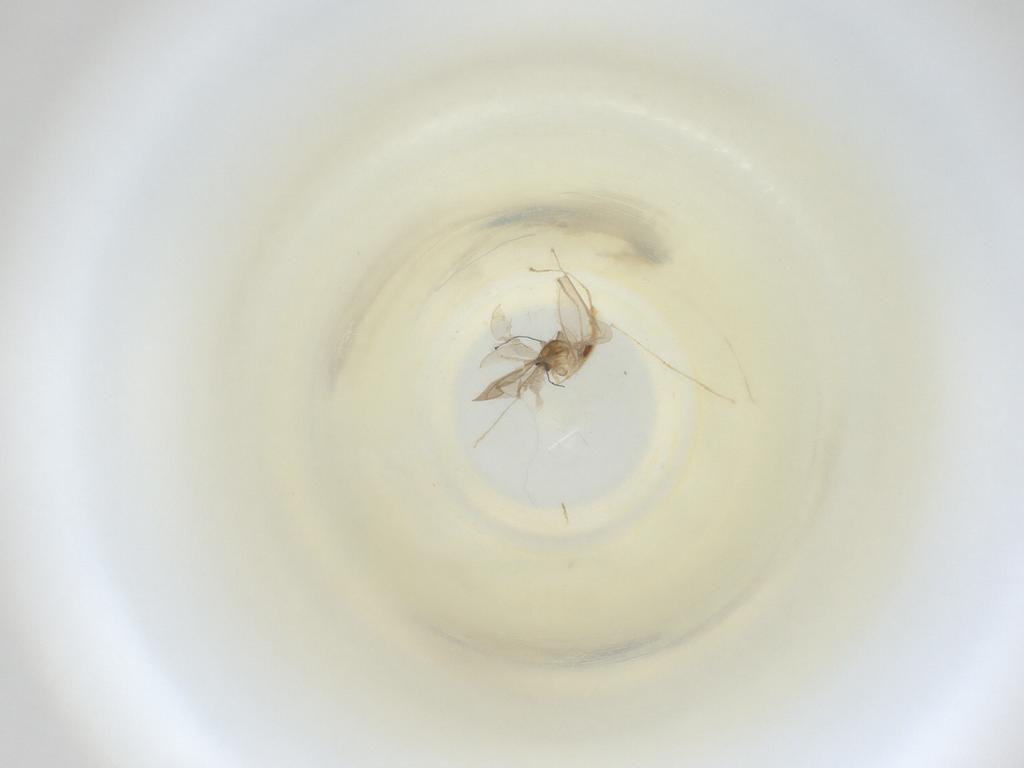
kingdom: Animalia
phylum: Arthropoda
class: Insecta
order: Diptera
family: Cecidomyiidae
